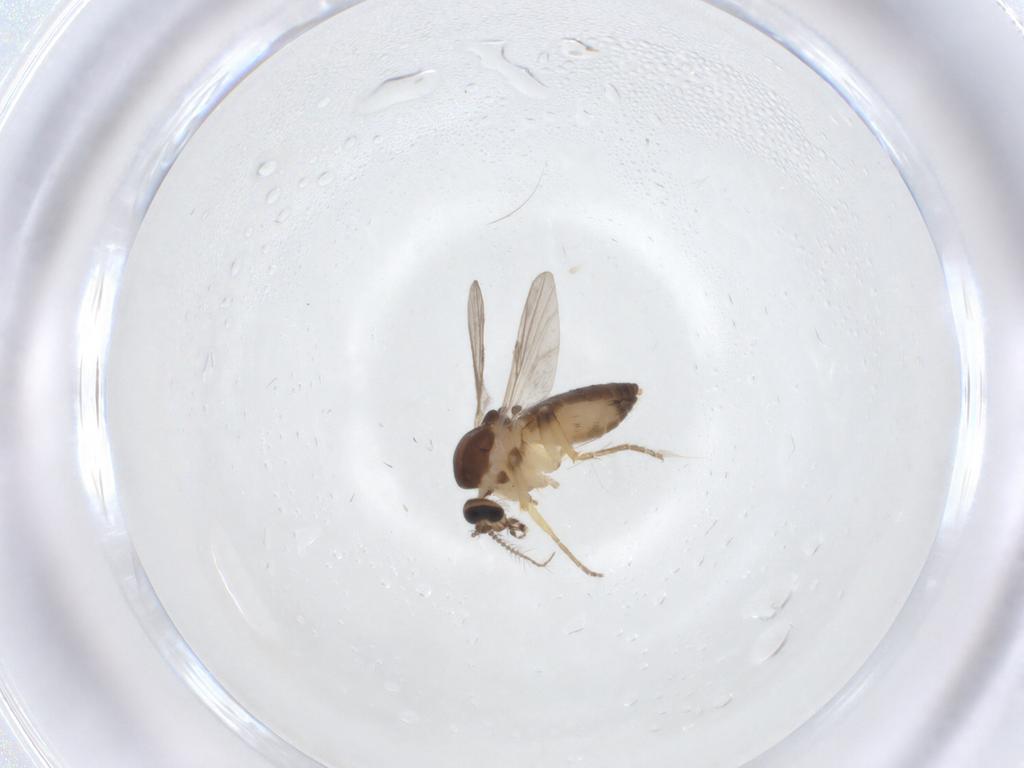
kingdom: Animalia
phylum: Arthropoda
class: Insecta
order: Diptera
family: Ceratopogonidae
